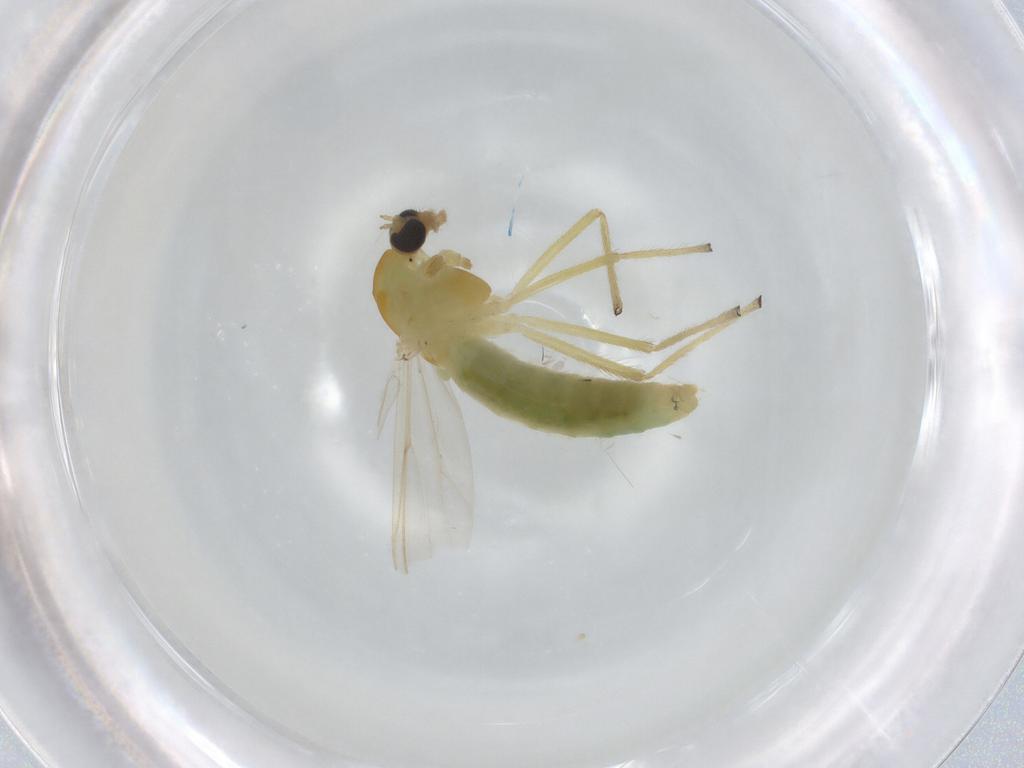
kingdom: Animalia
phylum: Arthropoda
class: Insecta
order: Diptera
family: Chironomidae
